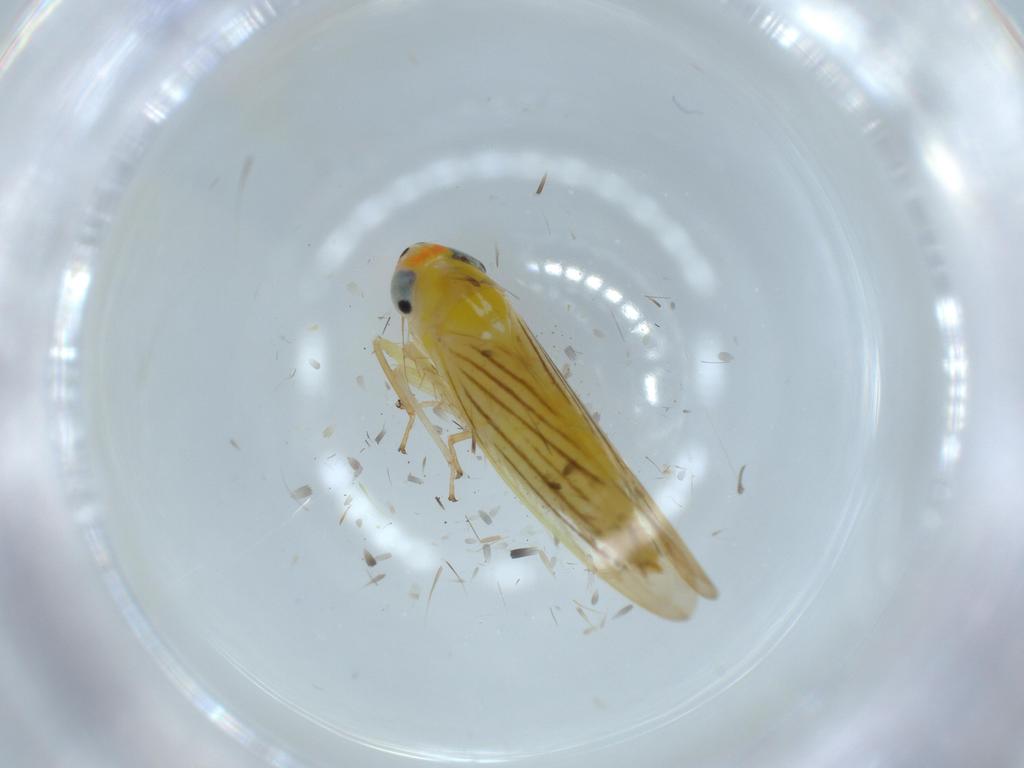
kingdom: Animalia
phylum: Arthropoda
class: Insecta
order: Hemiptera
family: Cicadellidae
